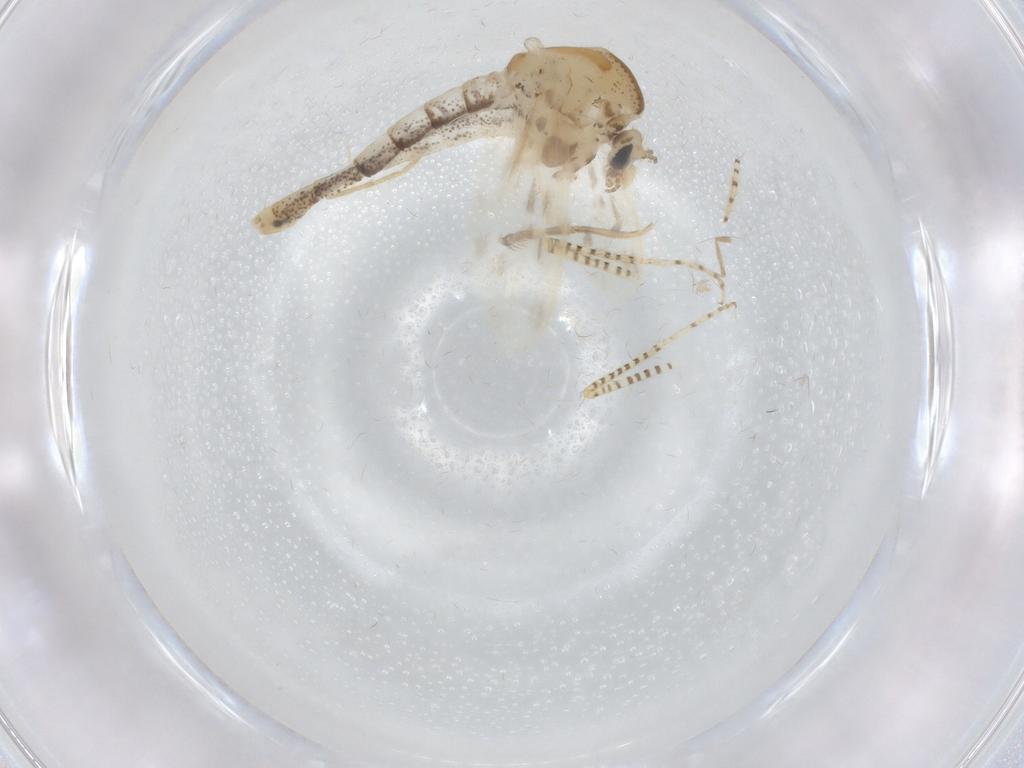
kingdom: Animalia
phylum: Arthropoda
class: Insecta
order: Diptera
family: Chaoboridae
